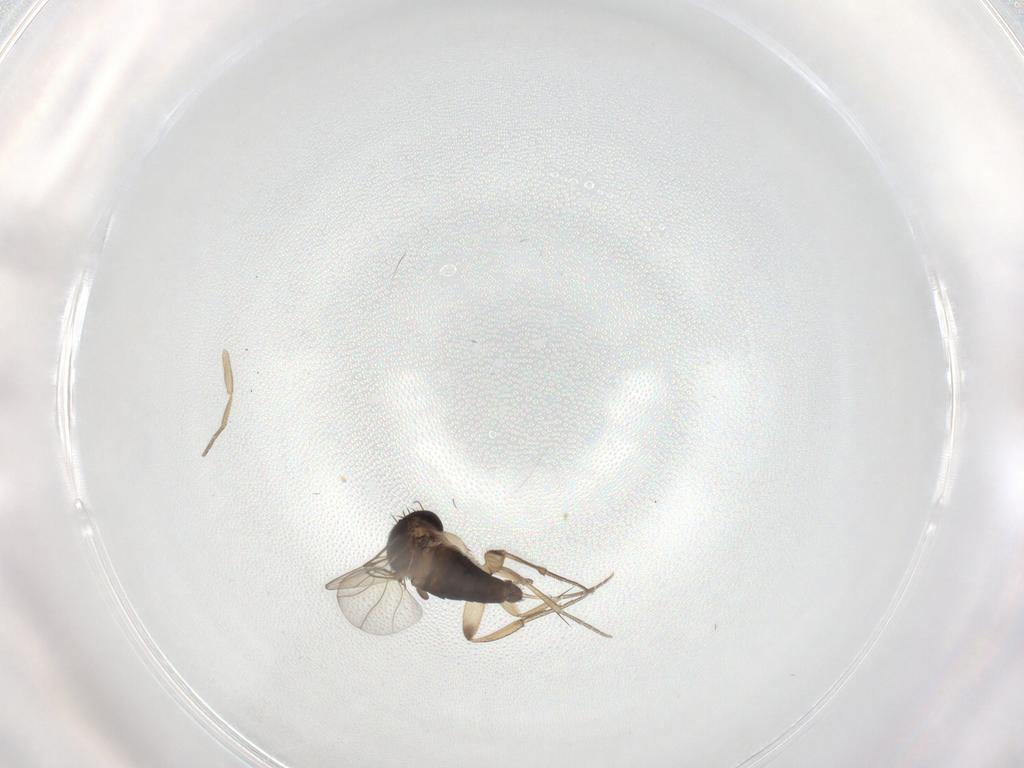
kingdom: Animalia
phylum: Arthropoda
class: Insecta
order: Diptera
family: Phoridae
